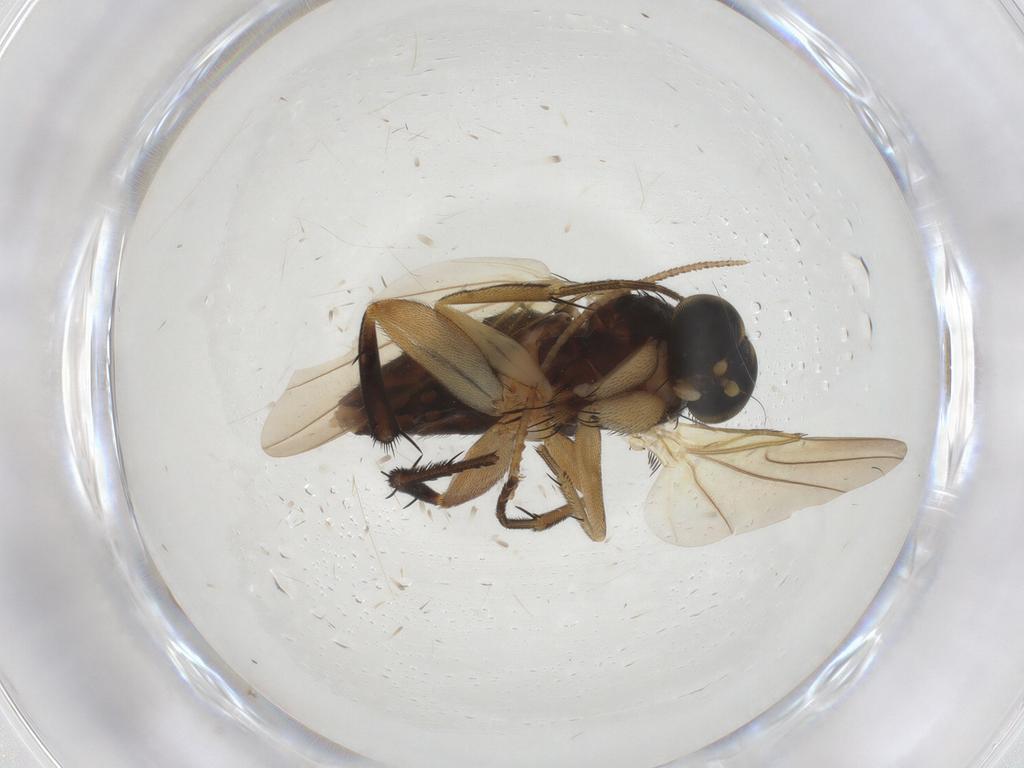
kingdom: Animalia
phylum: Arthropoda
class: Insecta
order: Diptera
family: Phoridae
